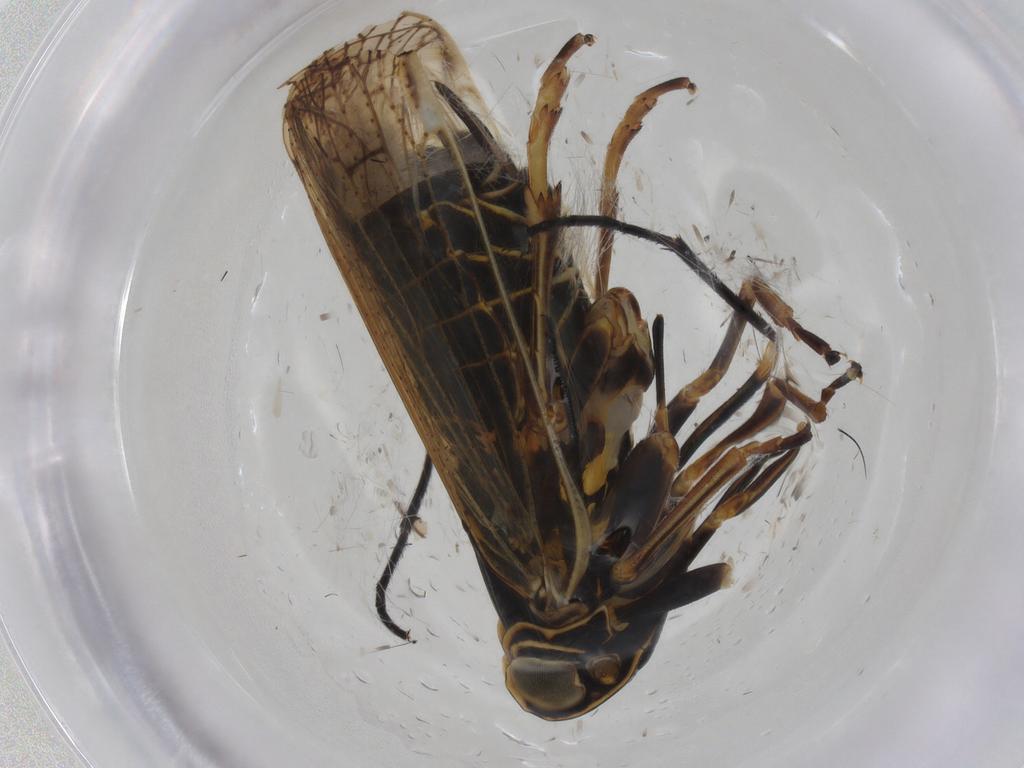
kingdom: Animalia
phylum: Arthropoda
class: Insecta
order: Hemiptera
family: Cixiidae
